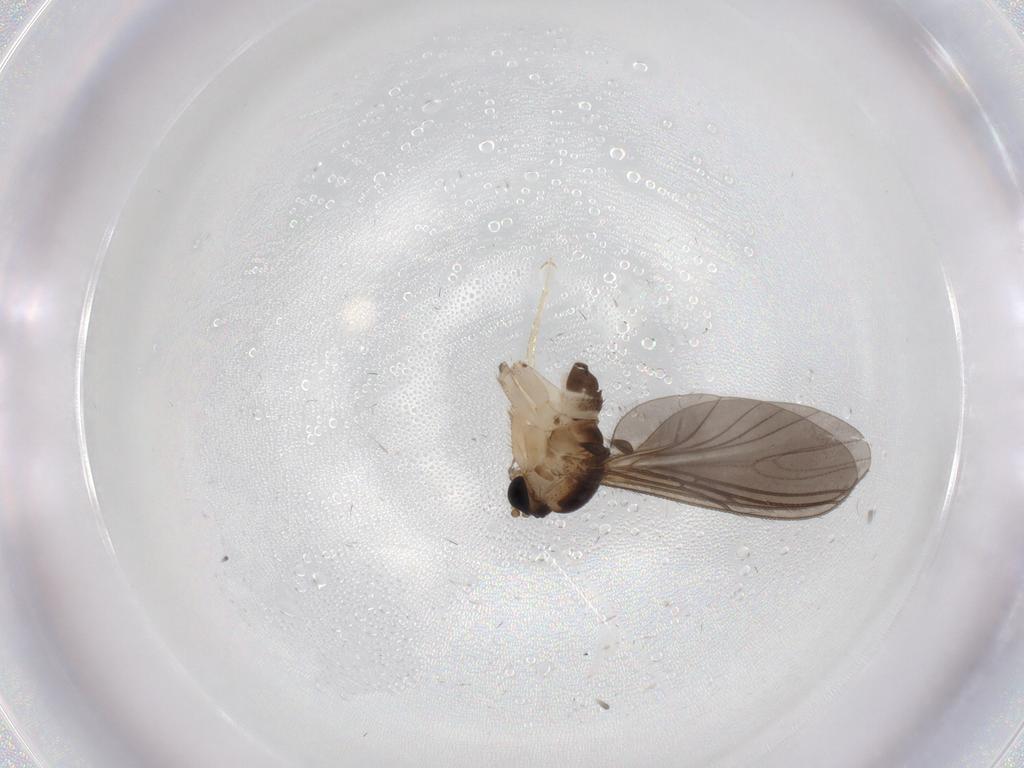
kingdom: Animalia
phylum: Arthropoda
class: Insecta
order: Diptera
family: Sciaridae
